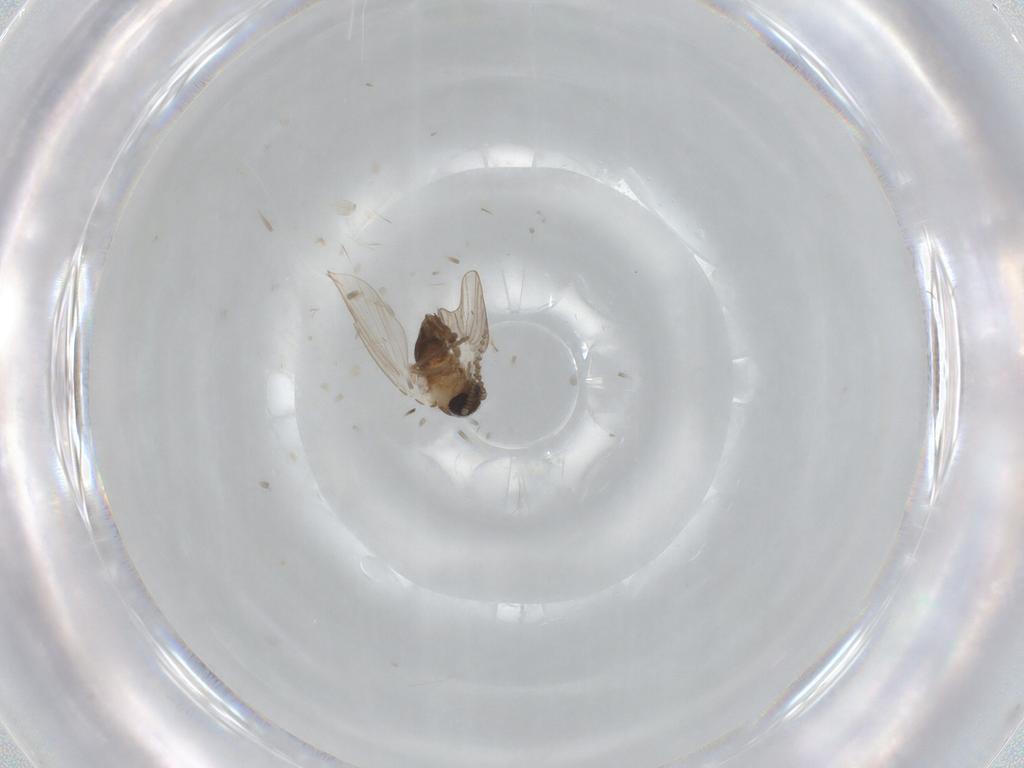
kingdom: Animalia
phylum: Arthropoda
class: Insecta
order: Diptera
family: Psychodidae
